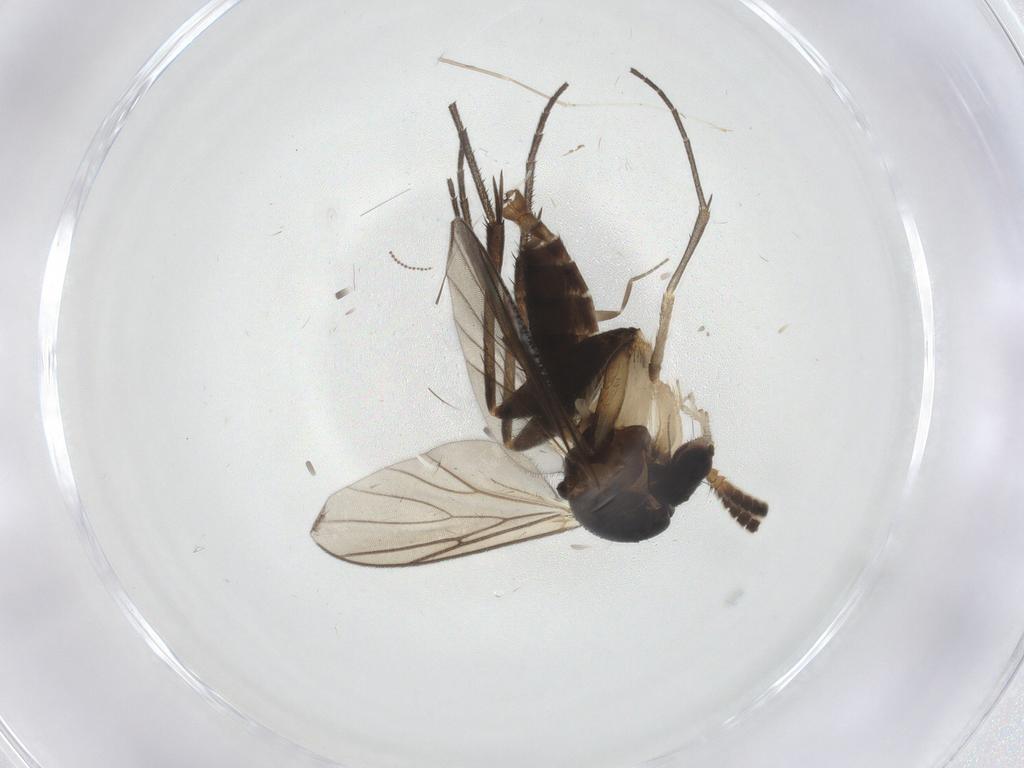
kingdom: Animalia
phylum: Arthropoda
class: Insecta
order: Diptera
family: Mycetophilidae
